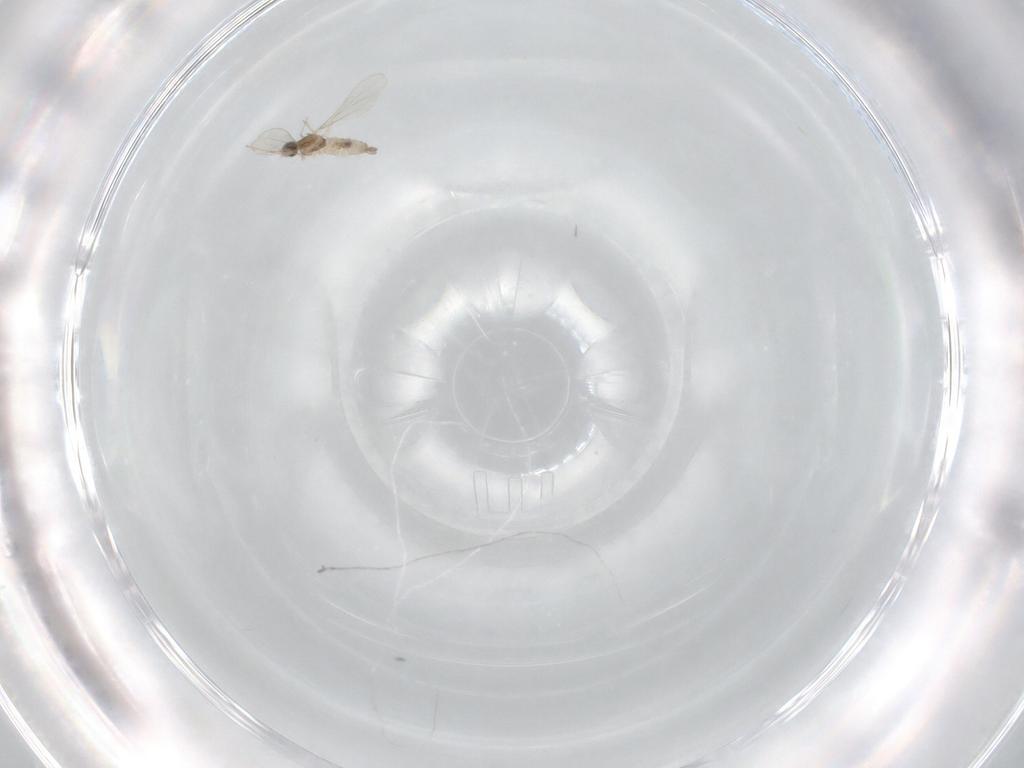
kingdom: Animalia
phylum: Arthropoda
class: Insecta
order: Diptera
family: Cecidomyiidae
